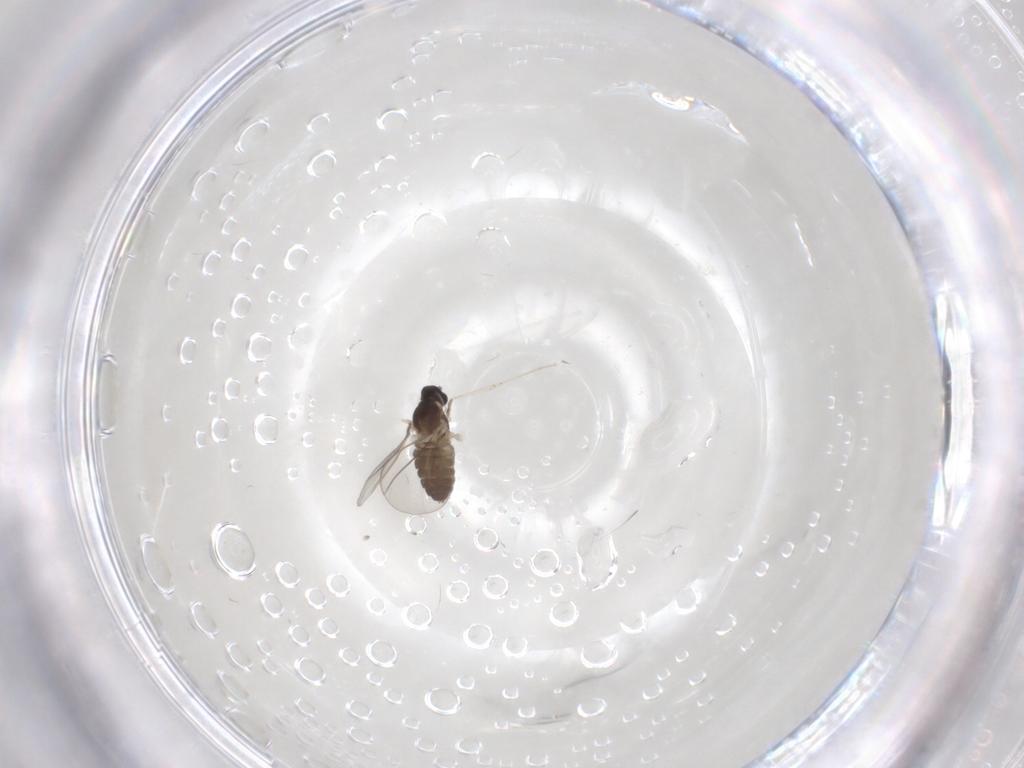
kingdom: Animalia
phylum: Arthropoda
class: Insecta
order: Diptera
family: Cecidomyiidae
